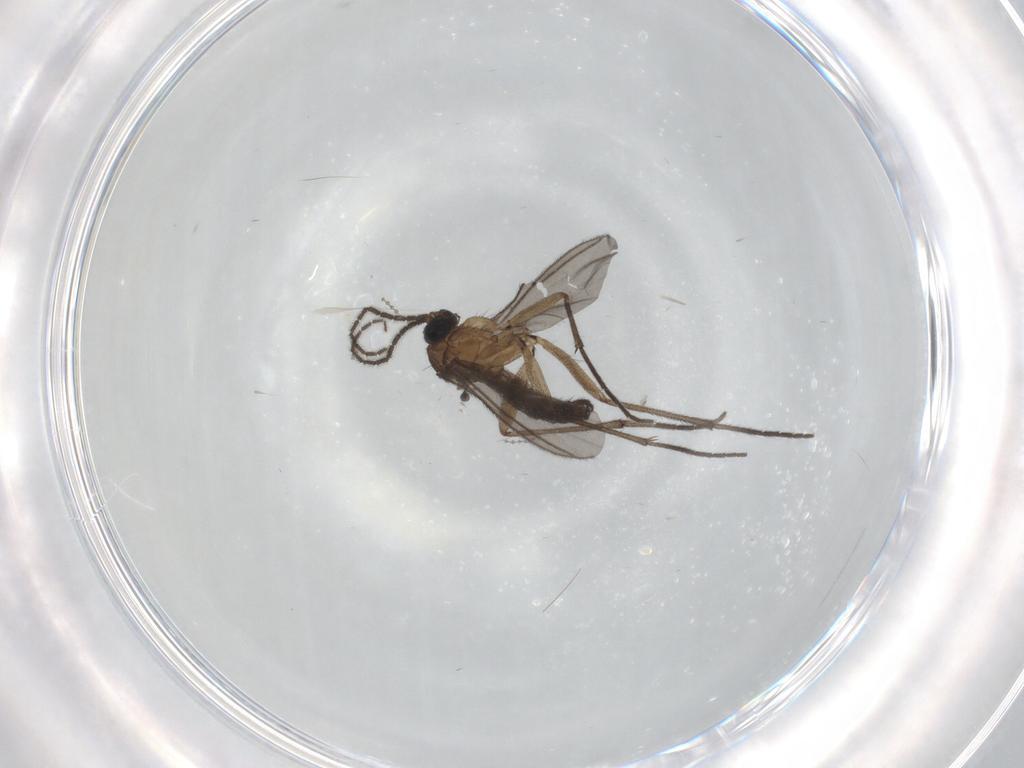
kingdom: Animalia
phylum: Arthropoda
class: Insecta
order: Diptera
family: Sciaridae
